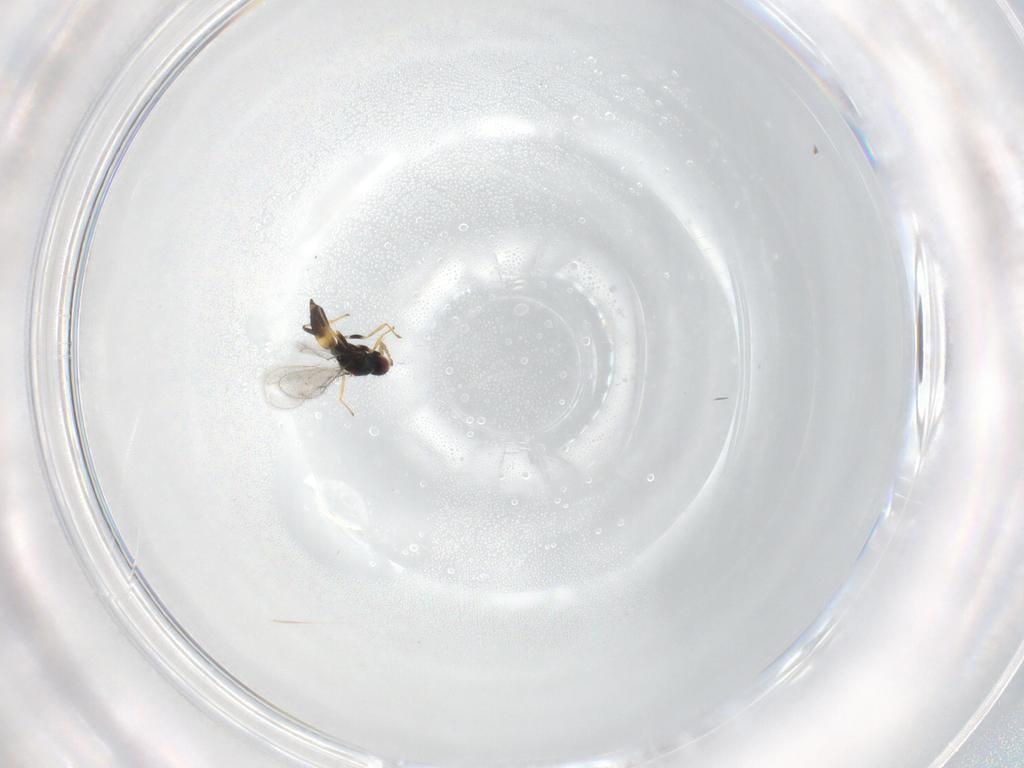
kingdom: Animalia
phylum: Arthropoda
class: Insecta
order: Hymenoptera
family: Eulophidae
